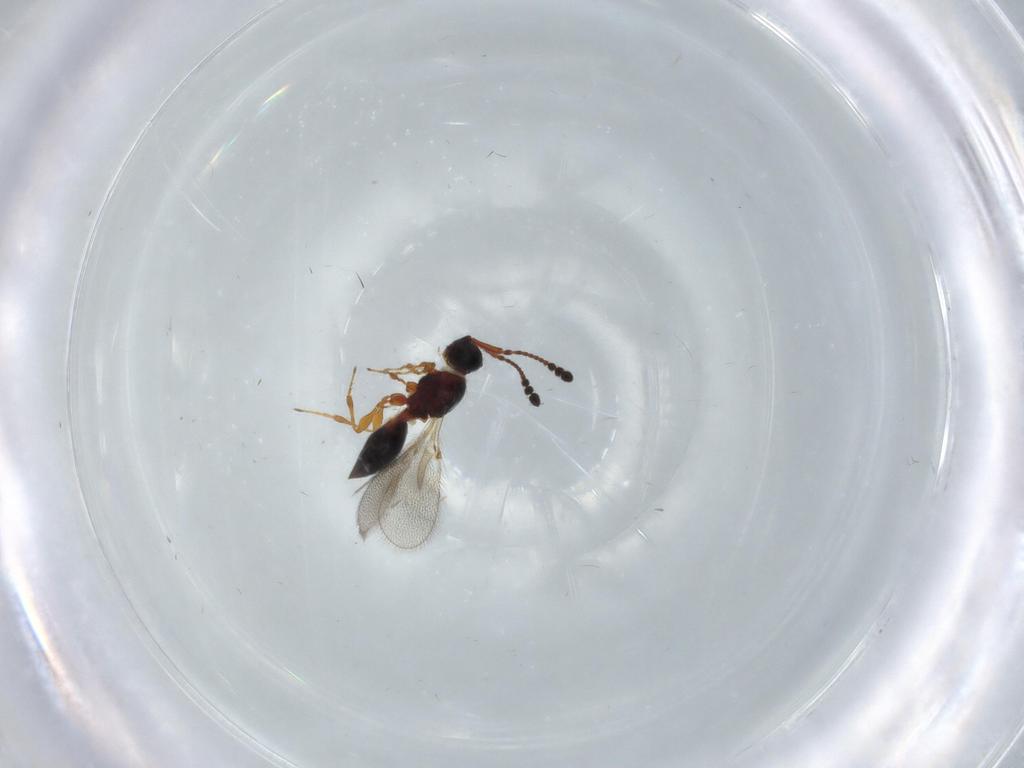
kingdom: Animalia
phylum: Arthropoda
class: Insecta
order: Hymenoptera
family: Diapriidae
